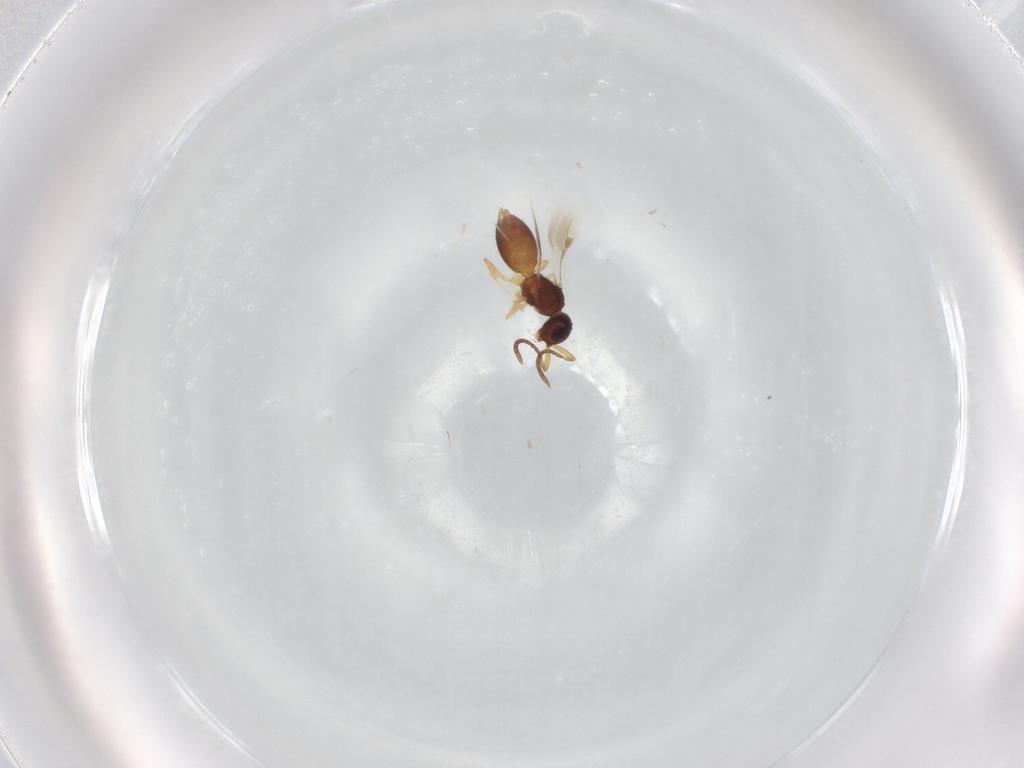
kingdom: Animalia
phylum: Arthropoda
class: Insecta
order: Hymenoptera
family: Megaspilidae
